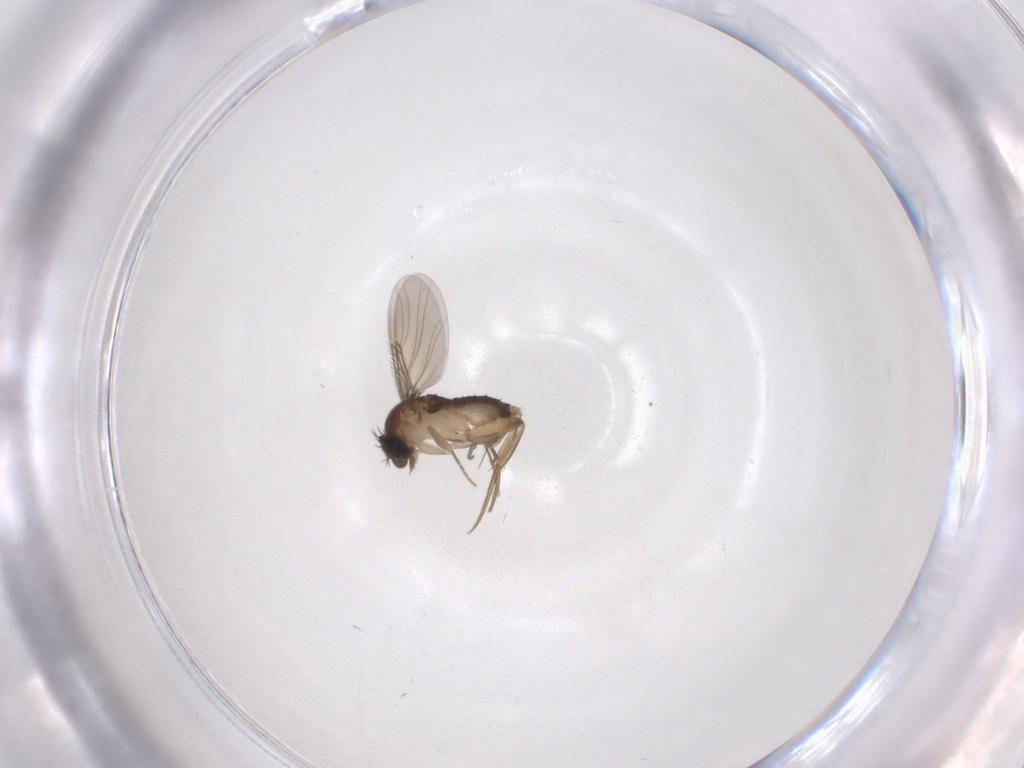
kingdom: Animalia
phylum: Arthropoda
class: Insecta
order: Diptera
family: Phoridae
